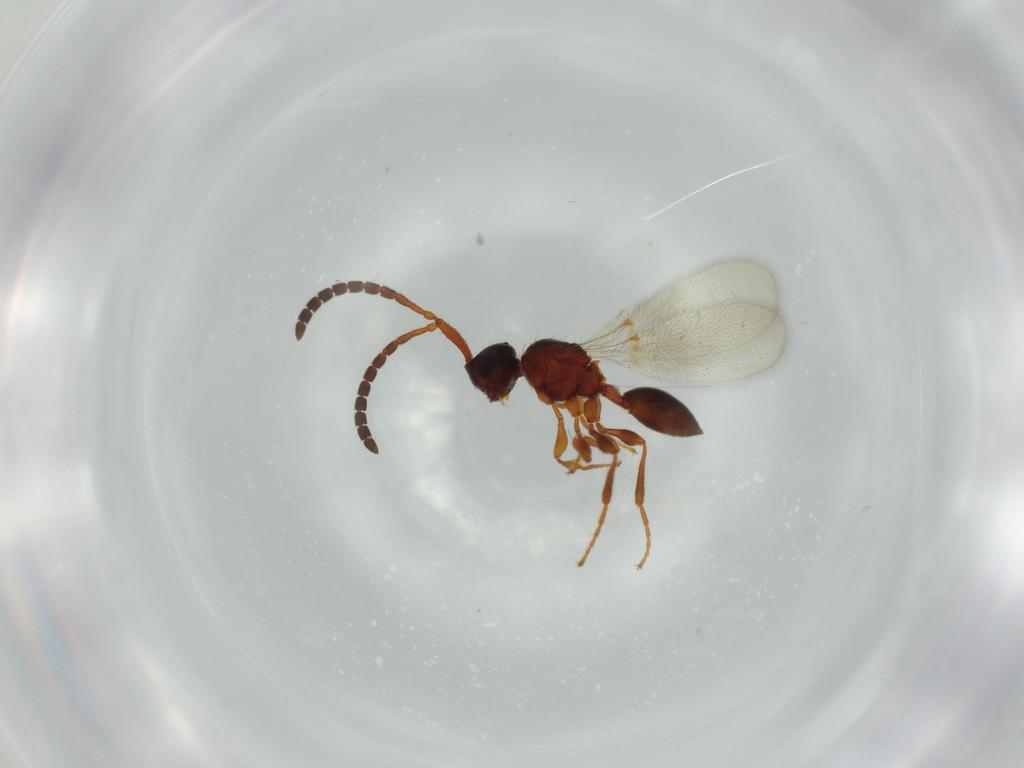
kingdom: Animalia
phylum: Arthropoda
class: Insecta
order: Hymenoptera
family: Diapriidae
